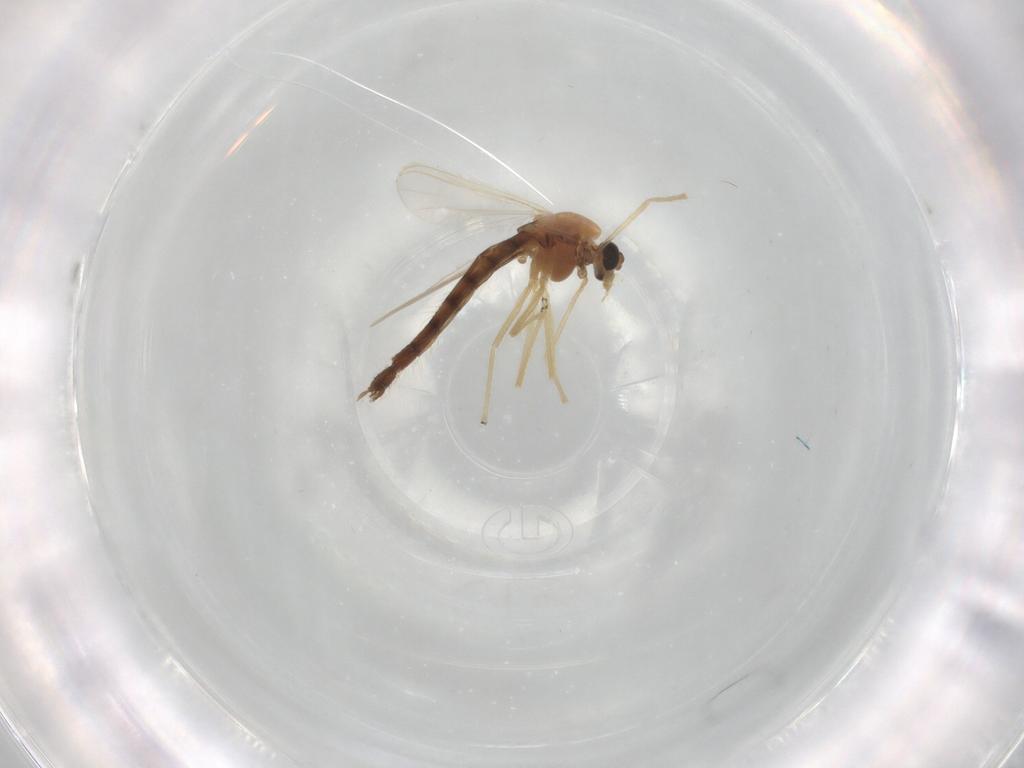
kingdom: Animalia
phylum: Arthropoda
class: Insecta
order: Diptera
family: Chironomidae
